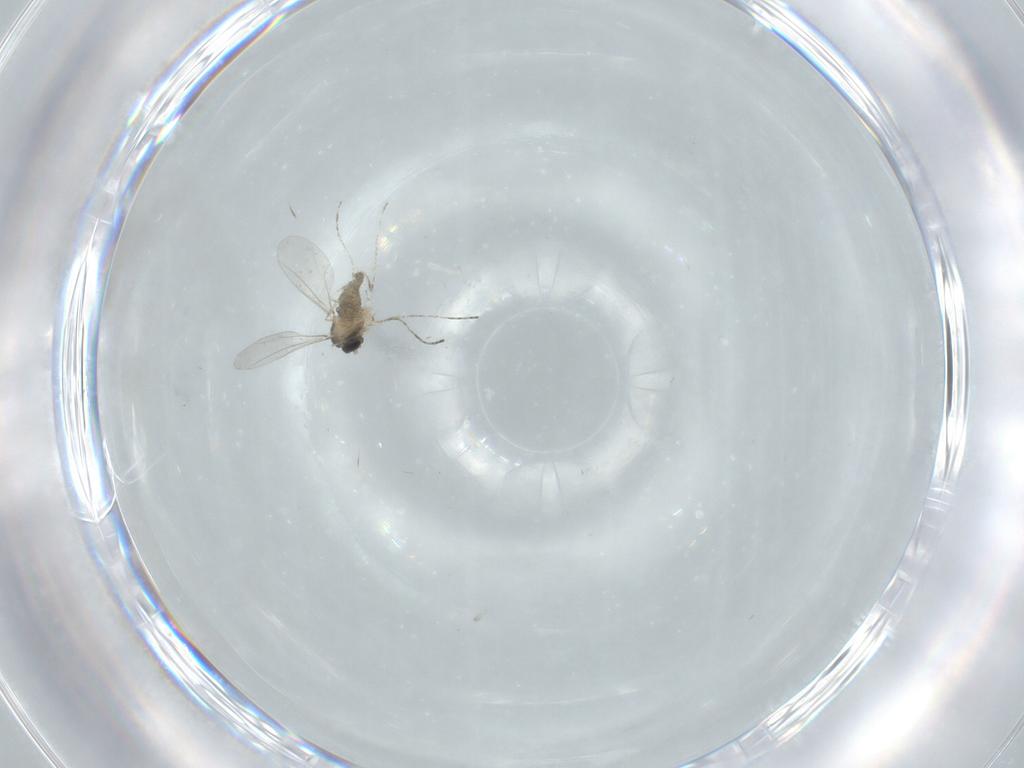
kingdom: Animalia
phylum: Arthropoda
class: Insecta
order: Diptera
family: Cecidomyiidae
